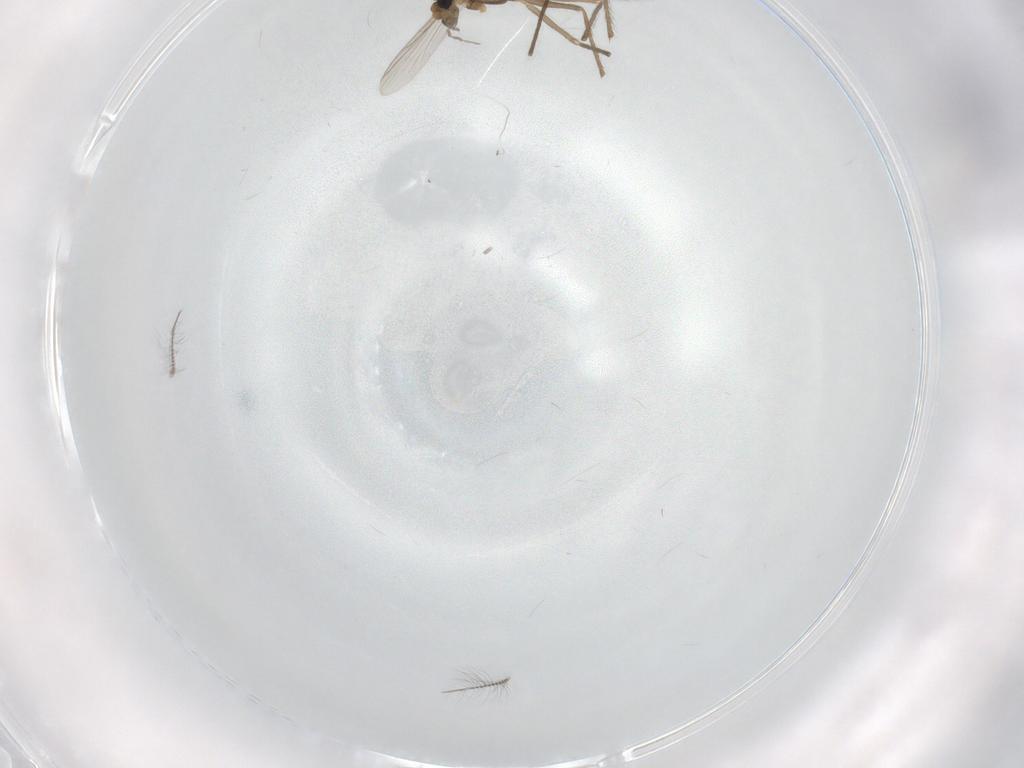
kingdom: Animalia
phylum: Arthropoda
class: Insecta
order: Diptera
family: Chironomidae
